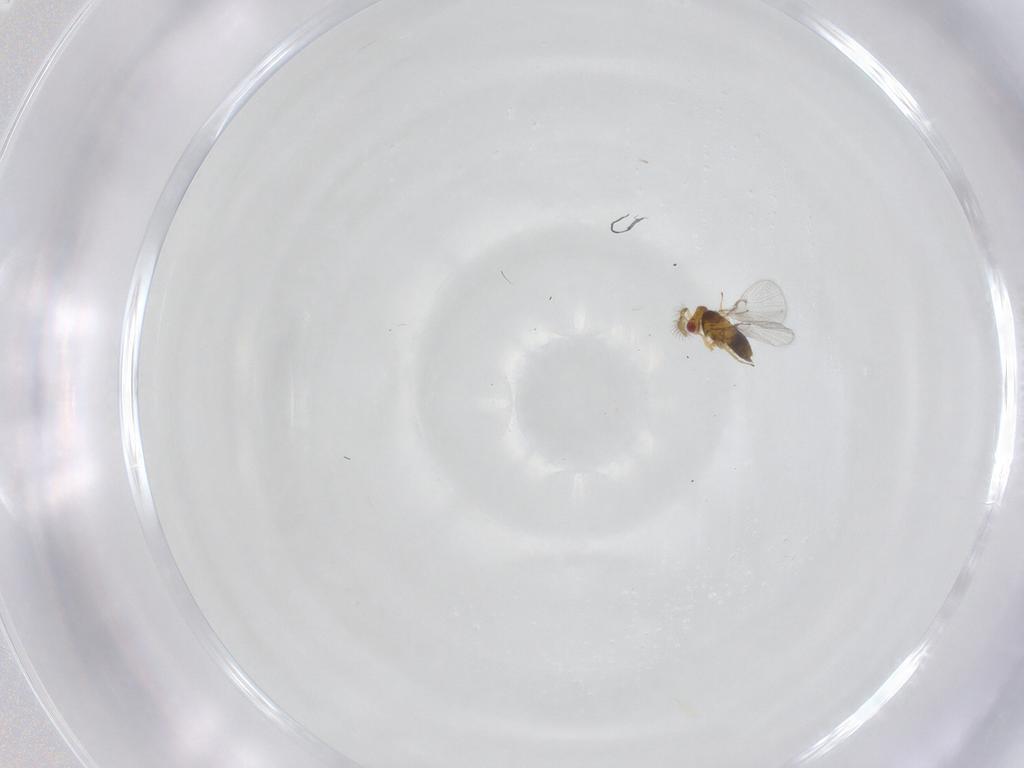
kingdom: Animalia
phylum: Arthropoda
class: Insecta
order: Hymenoptera
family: Trichogrammatidae
